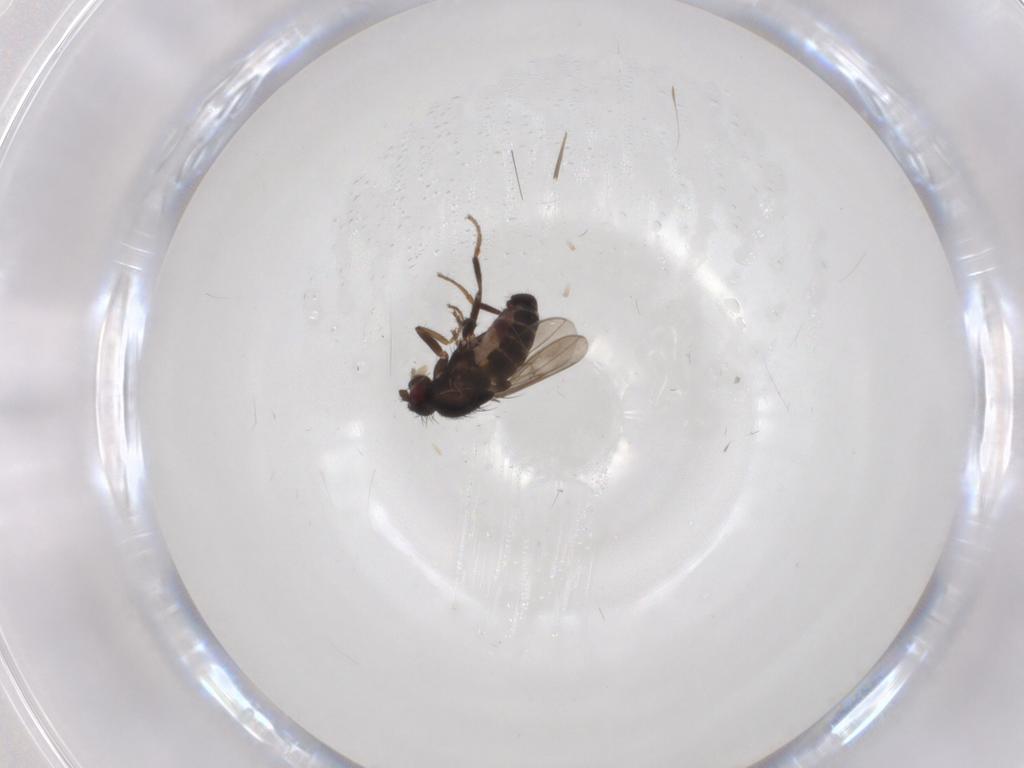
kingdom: Animalia
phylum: Arthropoda
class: Insecta
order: Diptera
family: Sphaeroceridae
